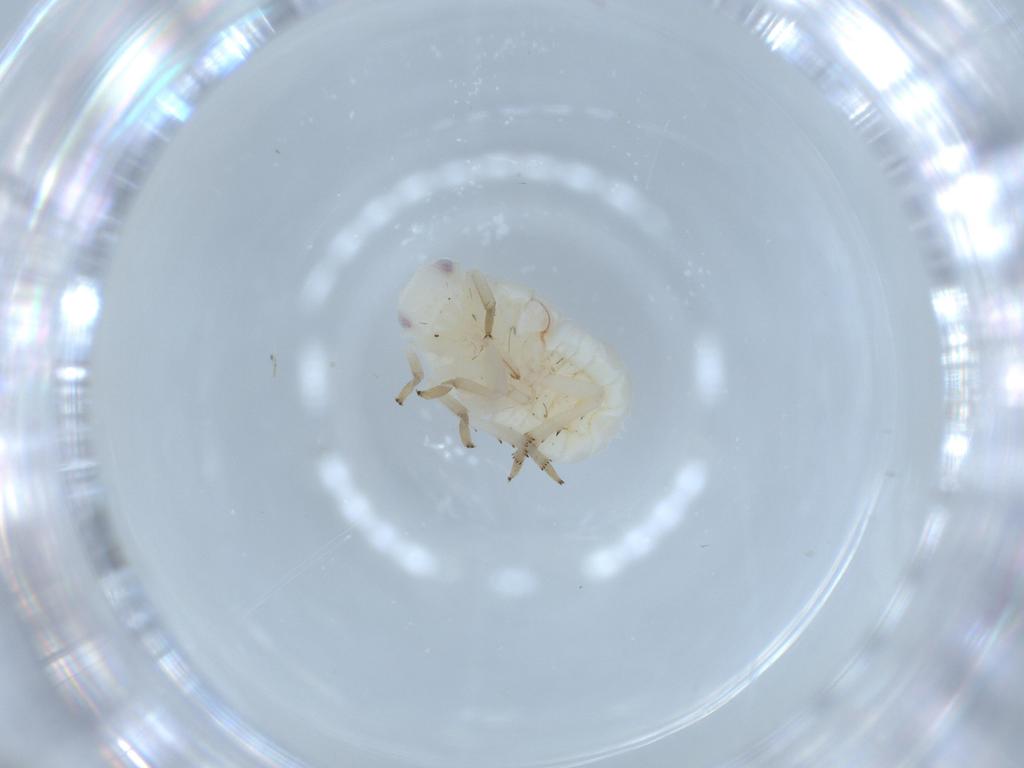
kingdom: Animalia
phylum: Arthropoda
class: Insecta
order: Hemiptera
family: Flatidae
